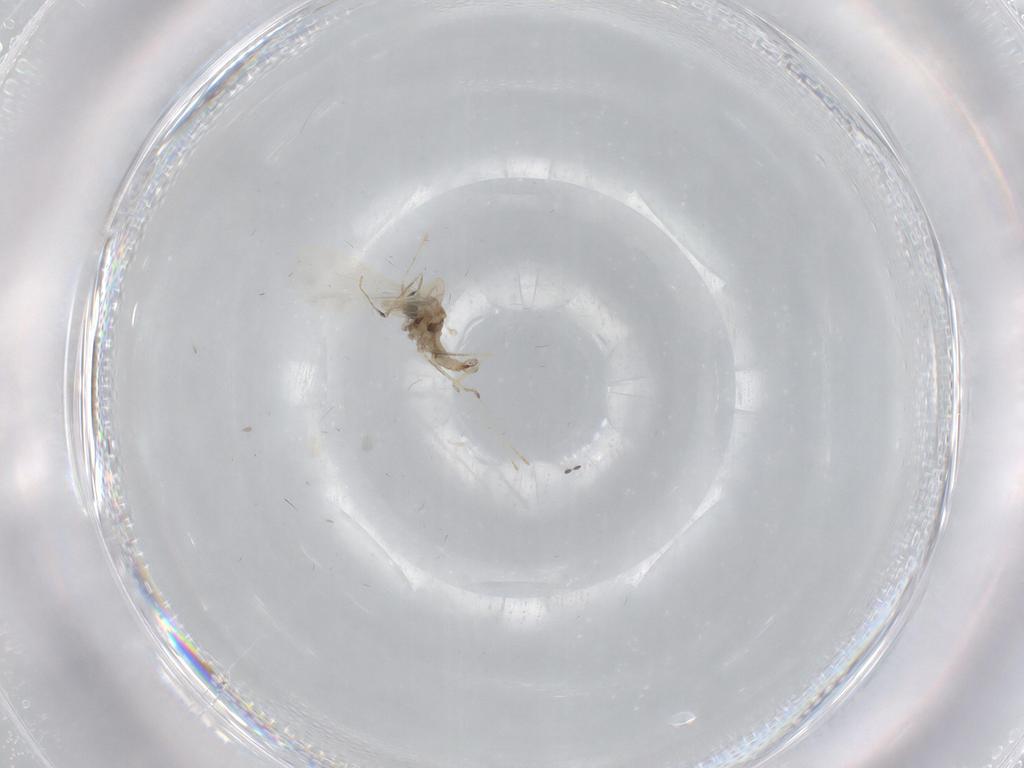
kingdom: Animalia
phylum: Arthropoda
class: Insecta
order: Diptera
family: Cecidomyiidae
